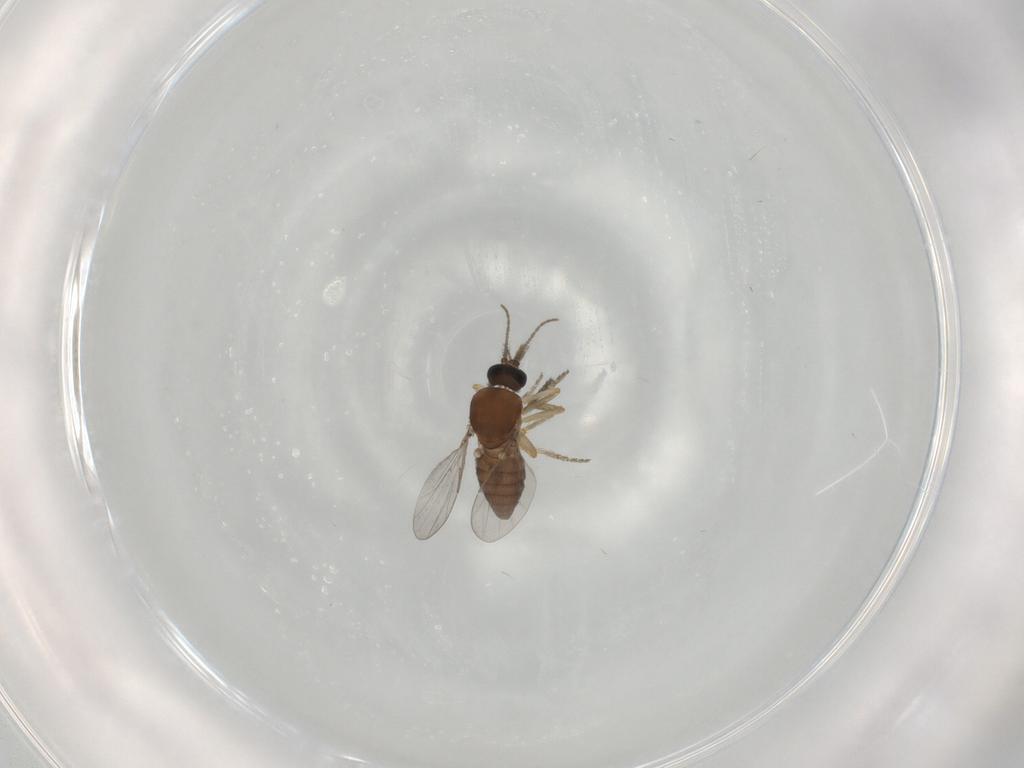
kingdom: Animalia
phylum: Arthropoda
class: Insecta
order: Diptera
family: Ceratopogonidae
